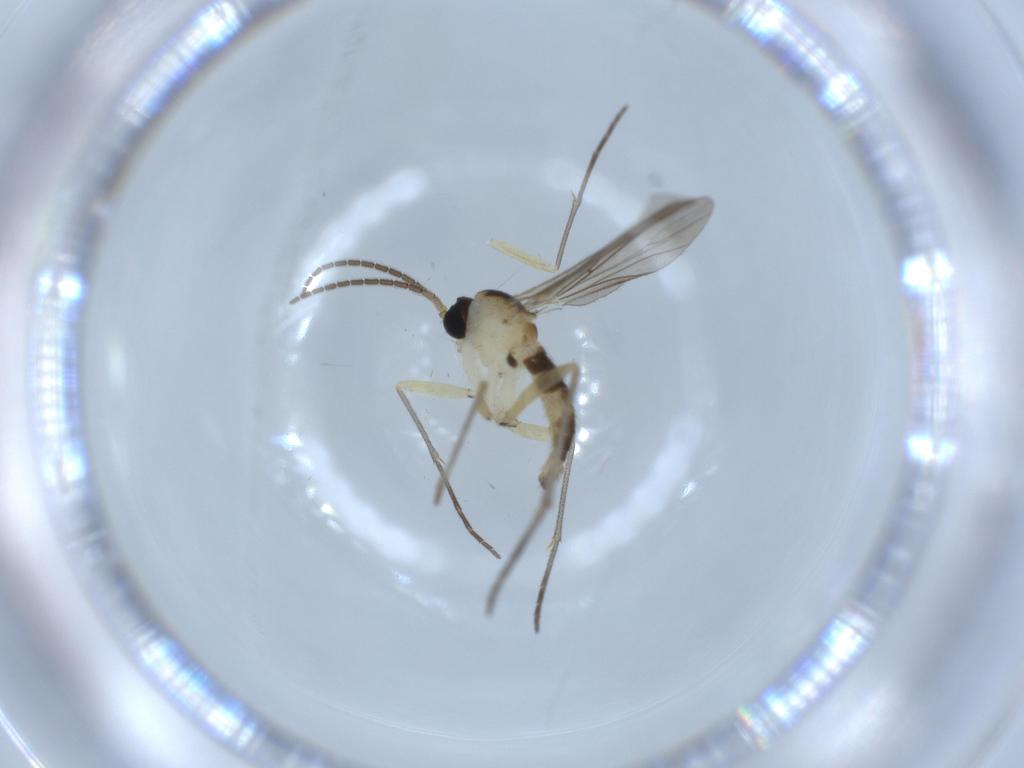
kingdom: Animalia
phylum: Arthropoda
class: Insecta
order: Diptera
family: Sciaridae
